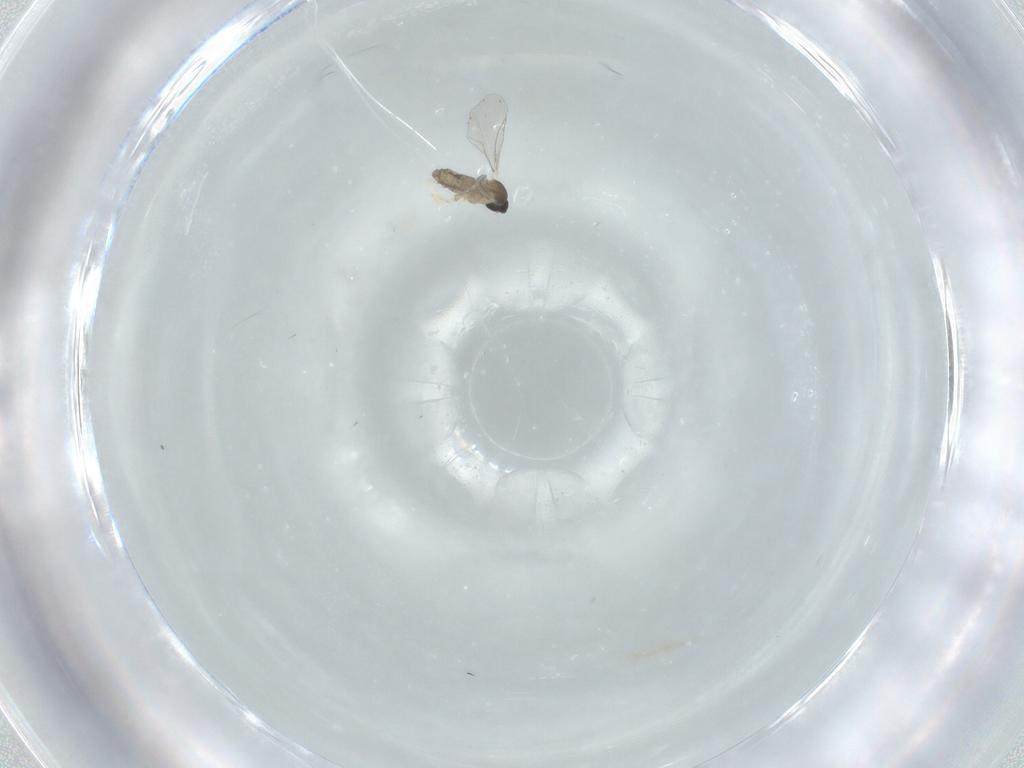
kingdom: Animalia
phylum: Arthropoda
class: Insecta
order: Diptera
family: Cecidomyiidae
